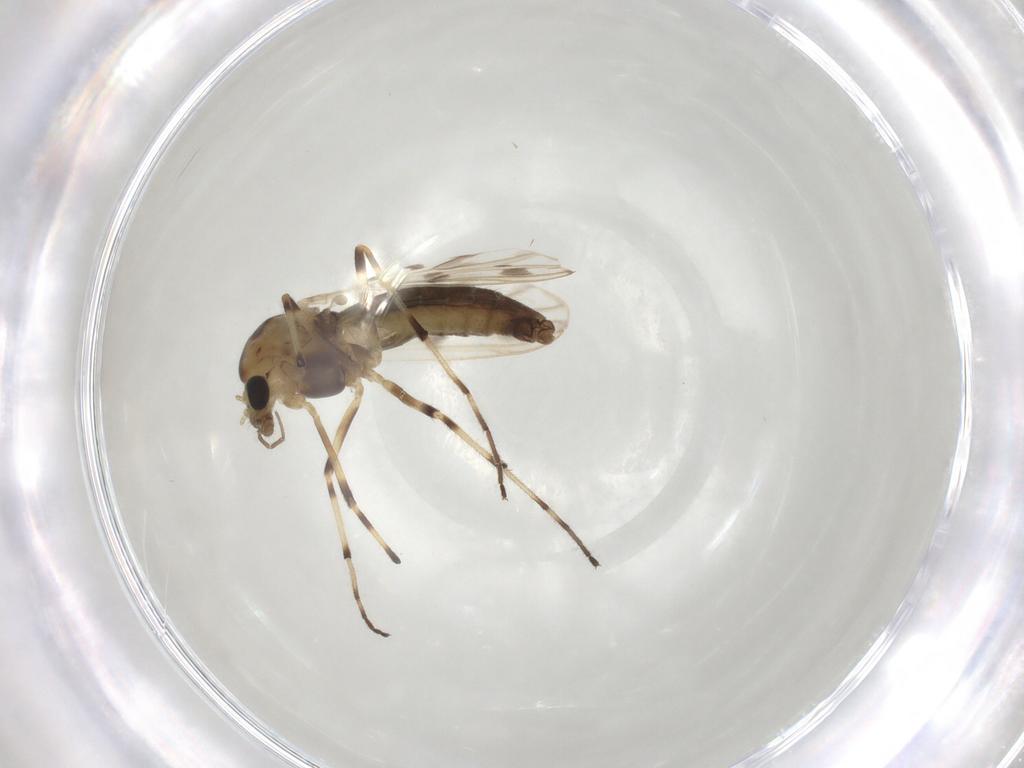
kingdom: Animalia
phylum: Arthropoda
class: Insecta
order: Diptera
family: Chironomidae
